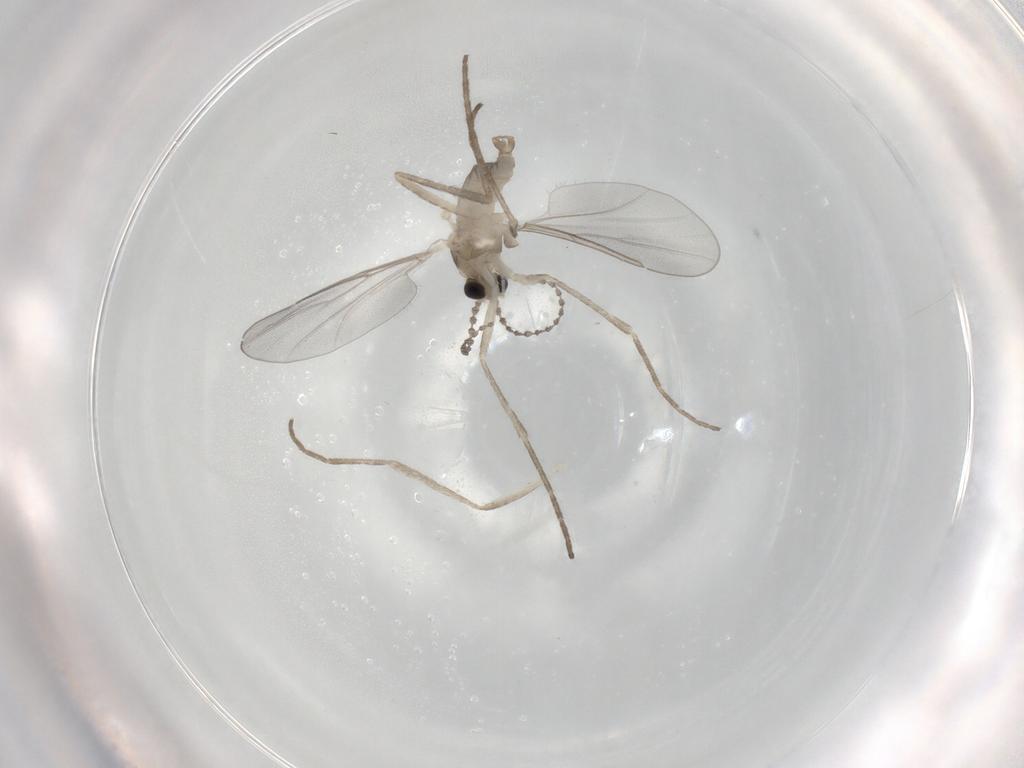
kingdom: Animalia
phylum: Arthropoda
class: Insecta
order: Diptera
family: Cecidomyiidae
